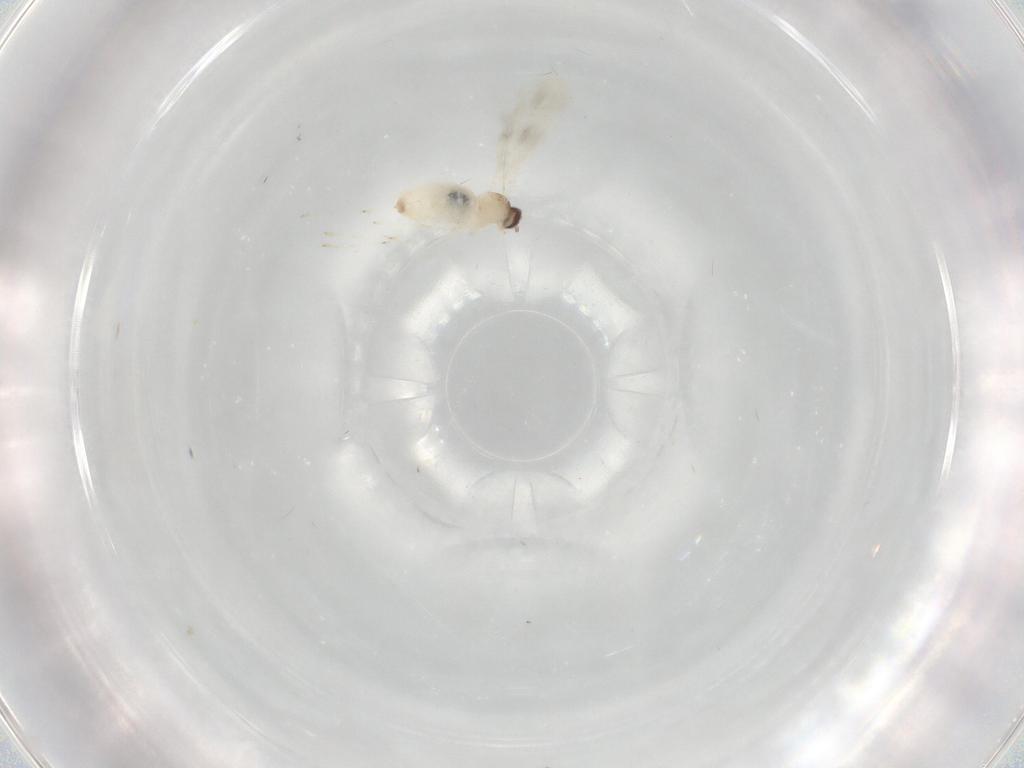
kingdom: Animalia
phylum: Arthropoda
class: Insecta
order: Diptera
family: Cecidomyiidae
